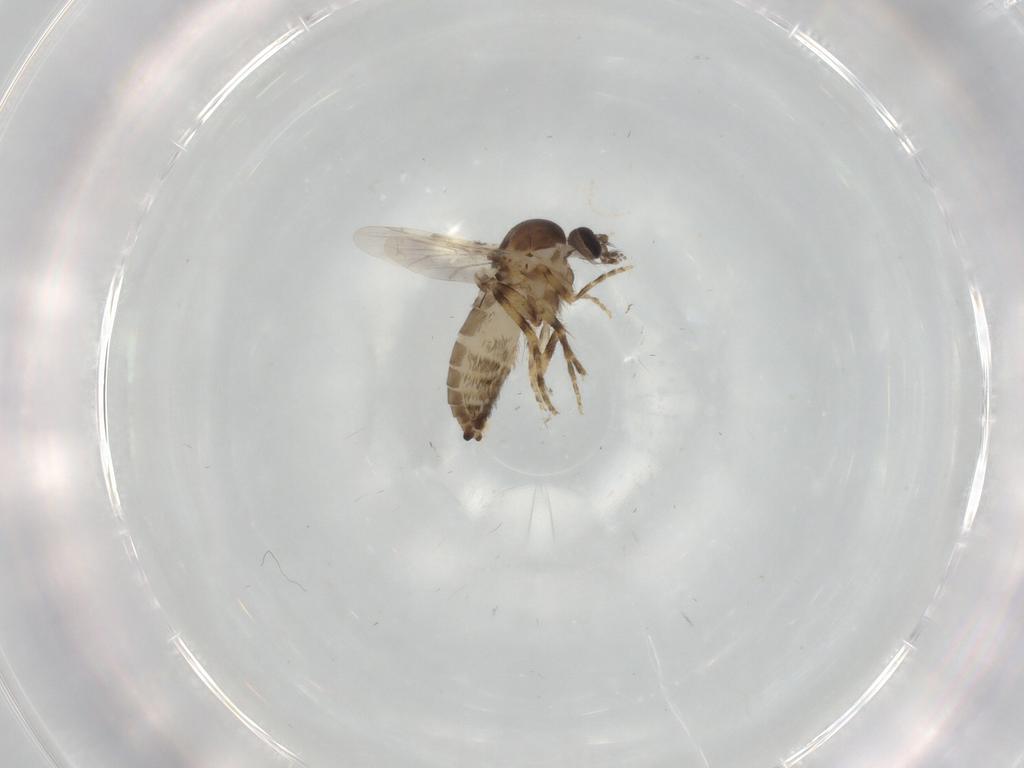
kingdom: Animalia
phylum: Arthropoda
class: Insecta
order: Diptera
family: Ceratopogonidae
